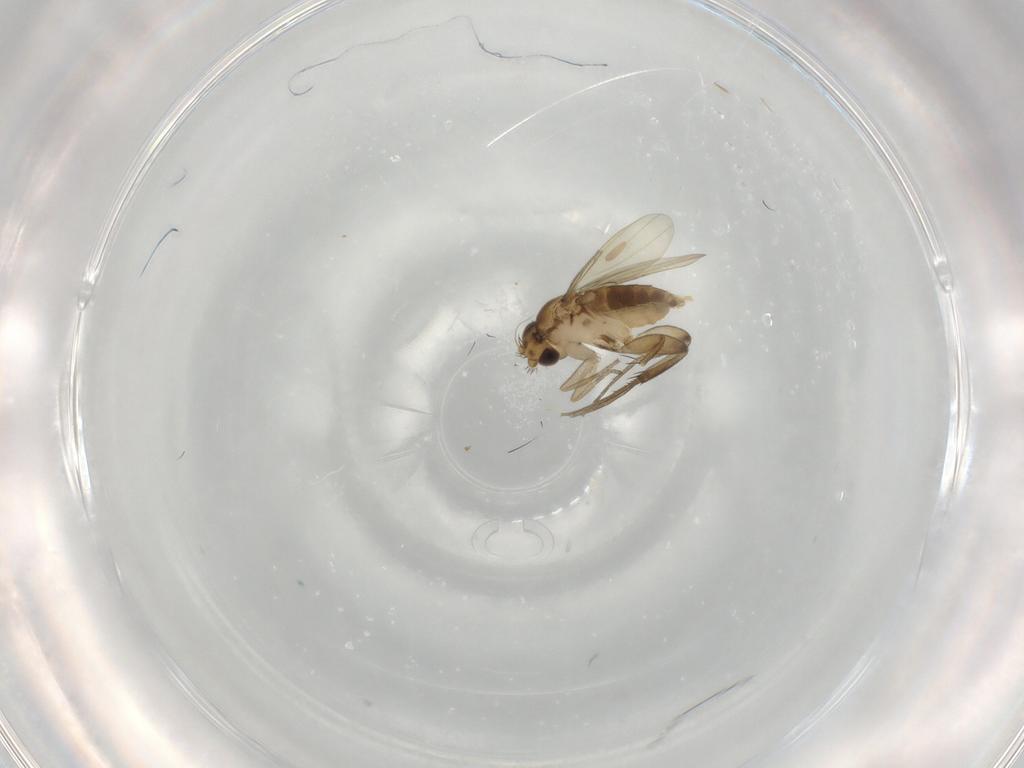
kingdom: Animalia
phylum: Arthropoda
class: Insecta
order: Diptera
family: Phoridae
